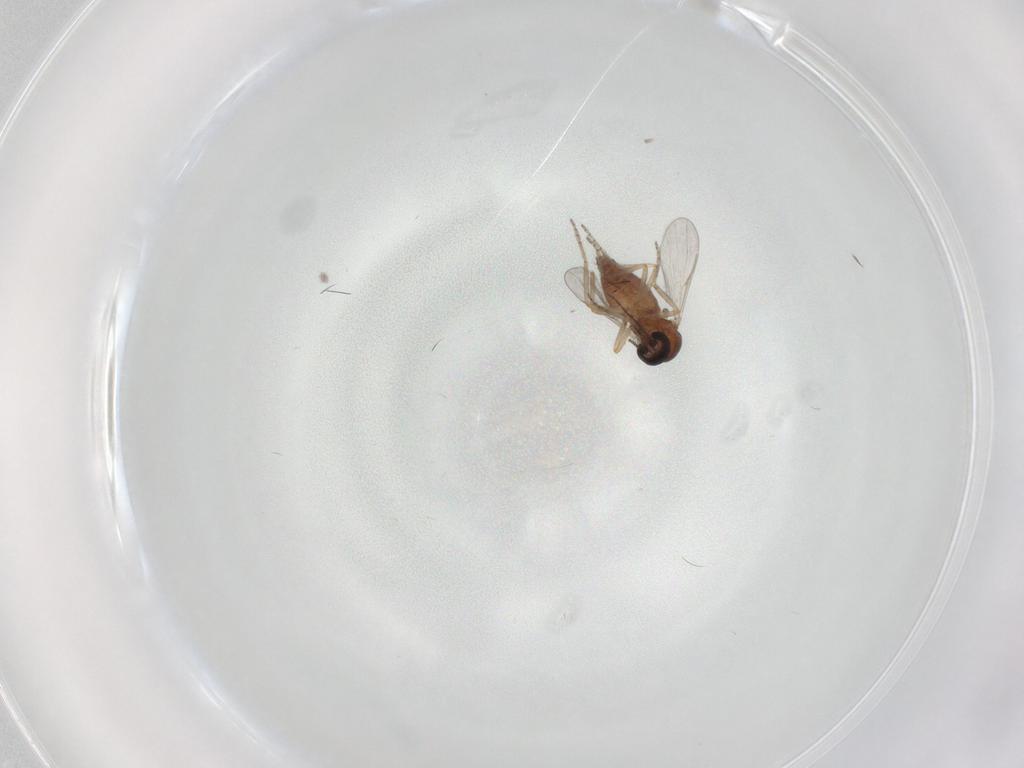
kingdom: Animalia
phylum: Arthropoda
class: Insecta
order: Diptera
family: Ceratopogonidae
